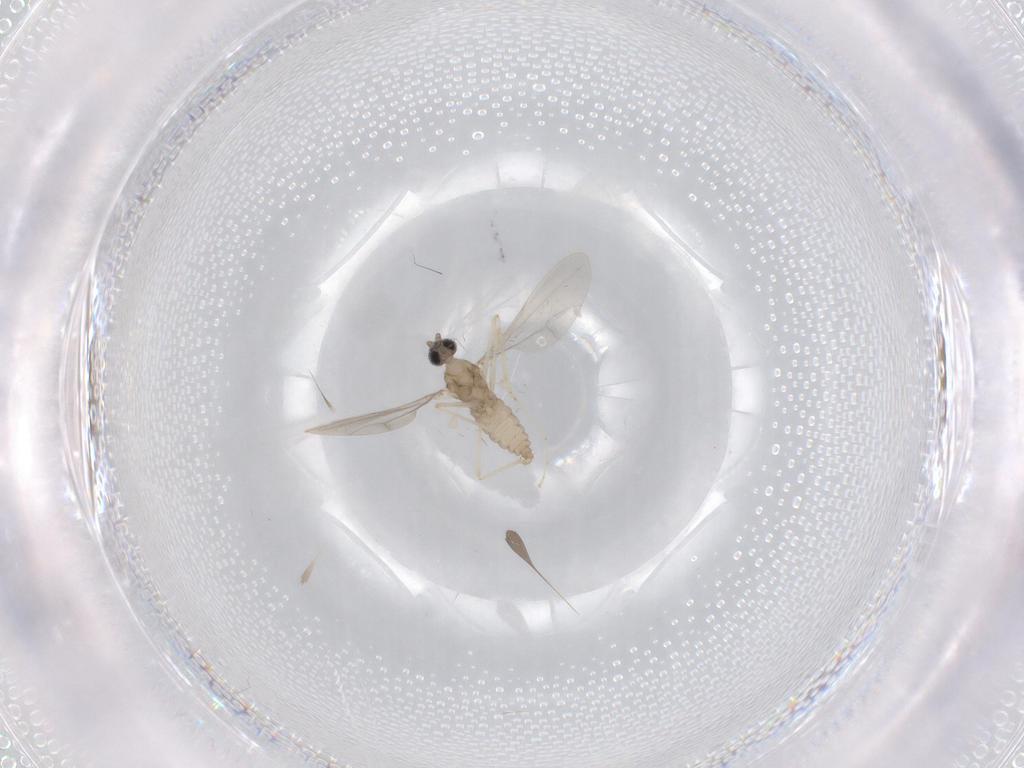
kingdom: Animalia
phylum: Arthropoda
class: Insecta
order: Diptera
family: Cecidomyiidae
